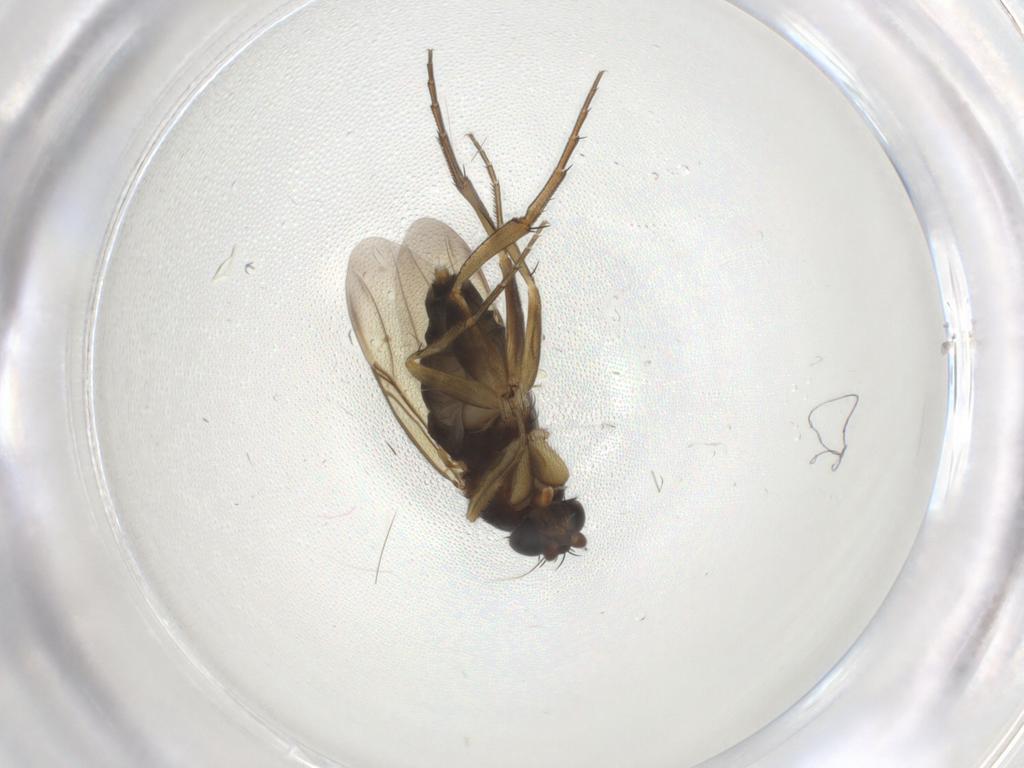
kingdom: Animalia
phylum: Arthropoda
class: Insecta
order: Diptera
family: Phoridae
